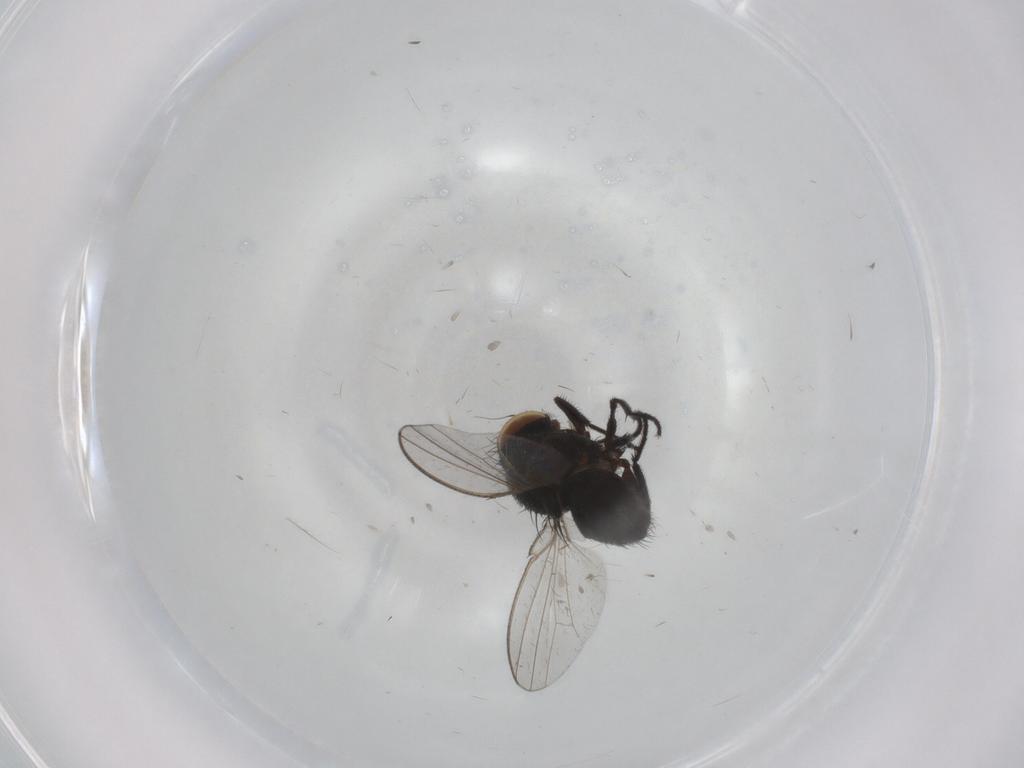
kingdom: Animalia
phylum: Arthropoda
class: Insecta
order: Diptera
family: Milichiidae
